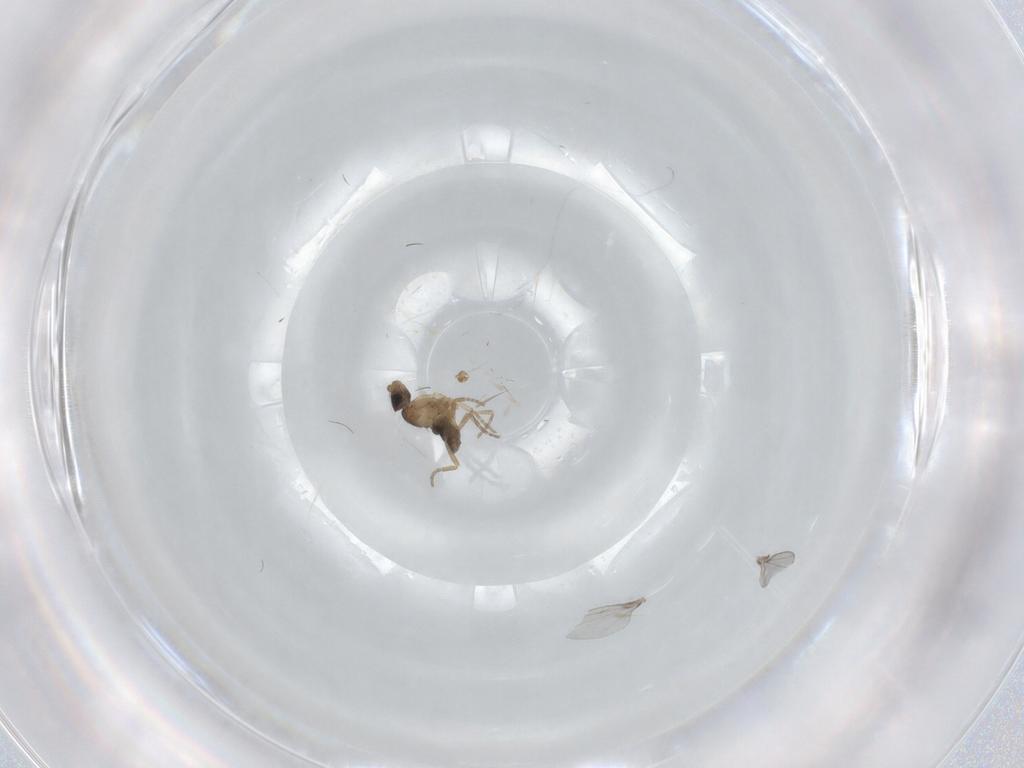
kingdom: Animalia
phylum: Arthropoda
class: Insecta
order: Diptera
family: Phoridae
